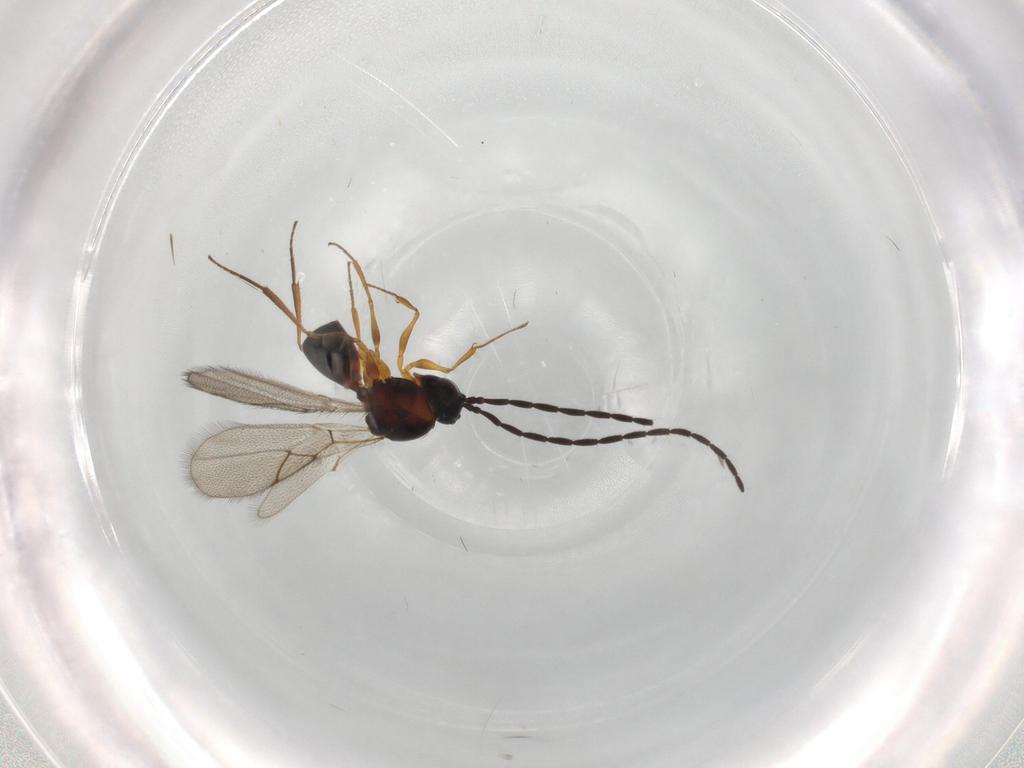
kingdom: Animalia
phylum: Arthropoda
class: Insecta
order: Hymenoptera
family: Figitidae
